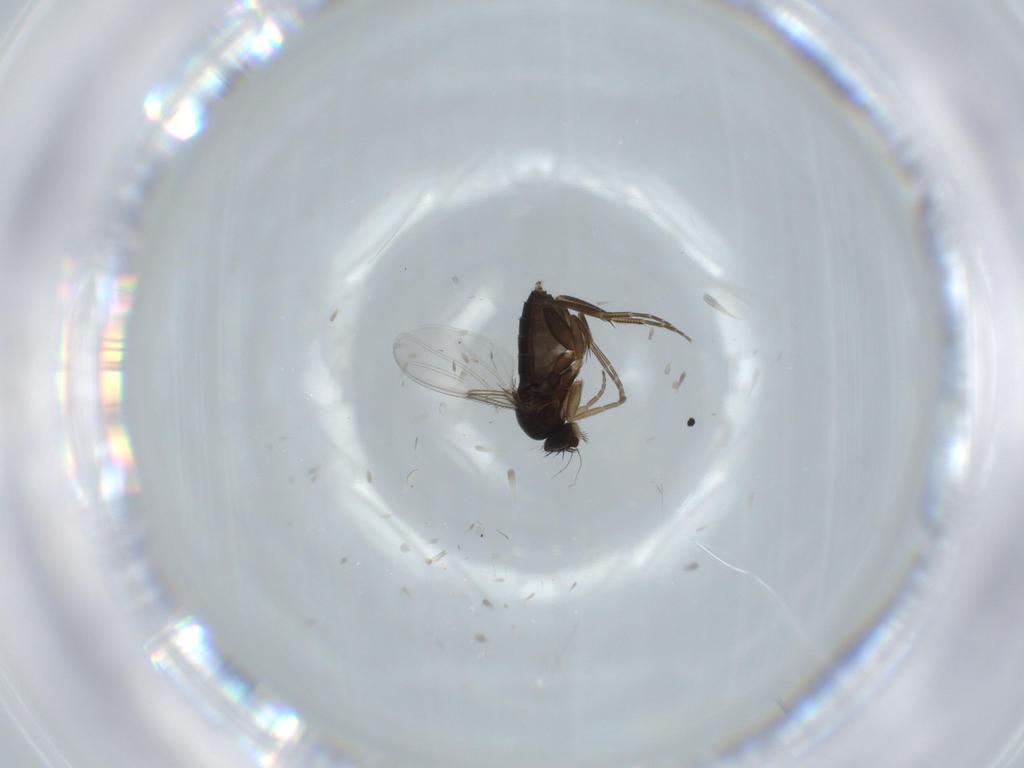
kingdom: Animalia
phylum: Arthropoda
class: Insecta
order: Diptera
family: Phoridae
